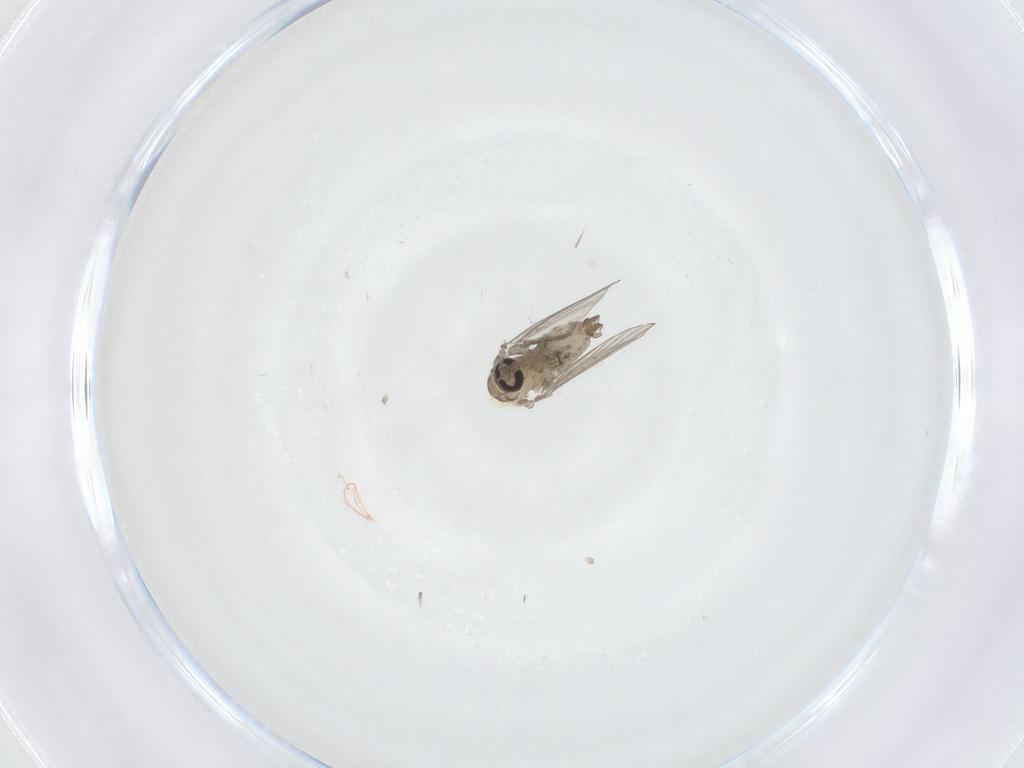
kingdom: Animalia
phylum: Arthropoda
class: Insecta
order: Diptera
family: Psychodidae
